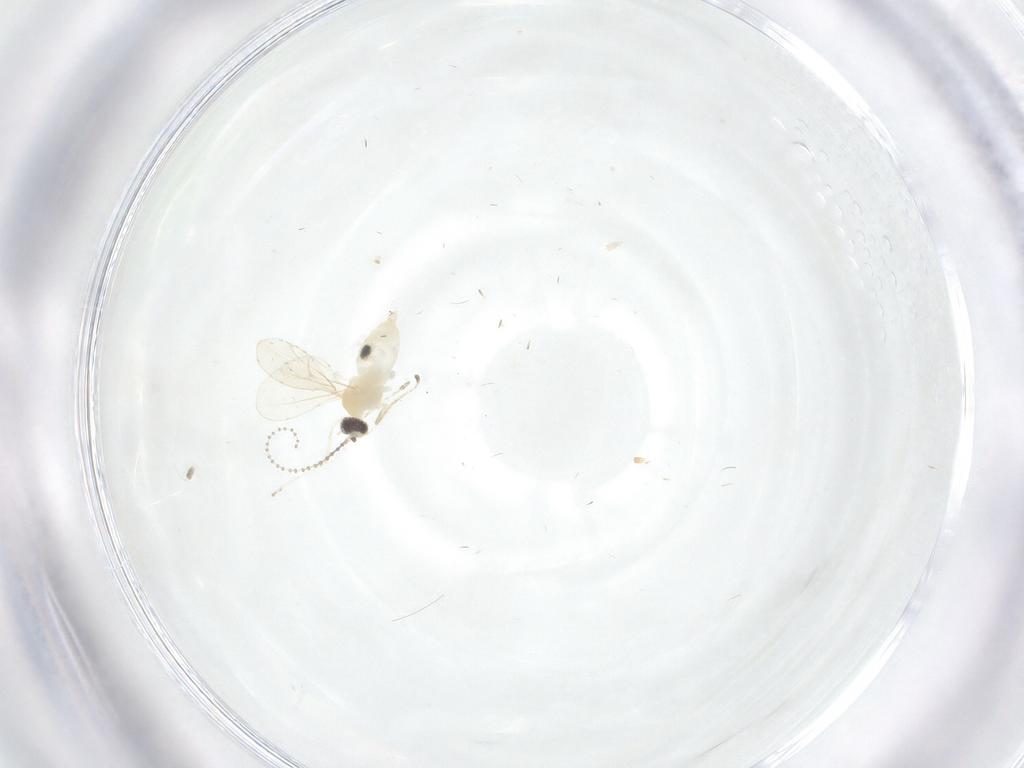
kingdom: Animalia
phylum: Arthropoda
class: Insecta
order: Diptera
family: Cecidomyiidae
